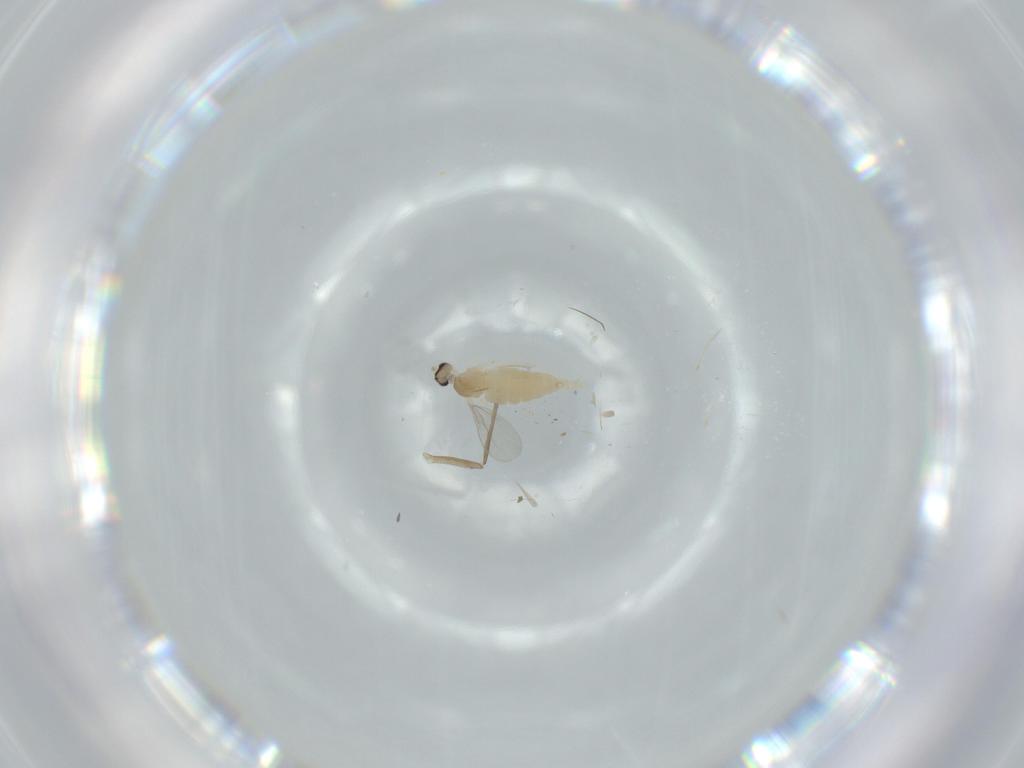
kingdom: Animalia
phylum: Arthropoda
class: Insecta
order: Diptera
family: Cecidomyiidae
